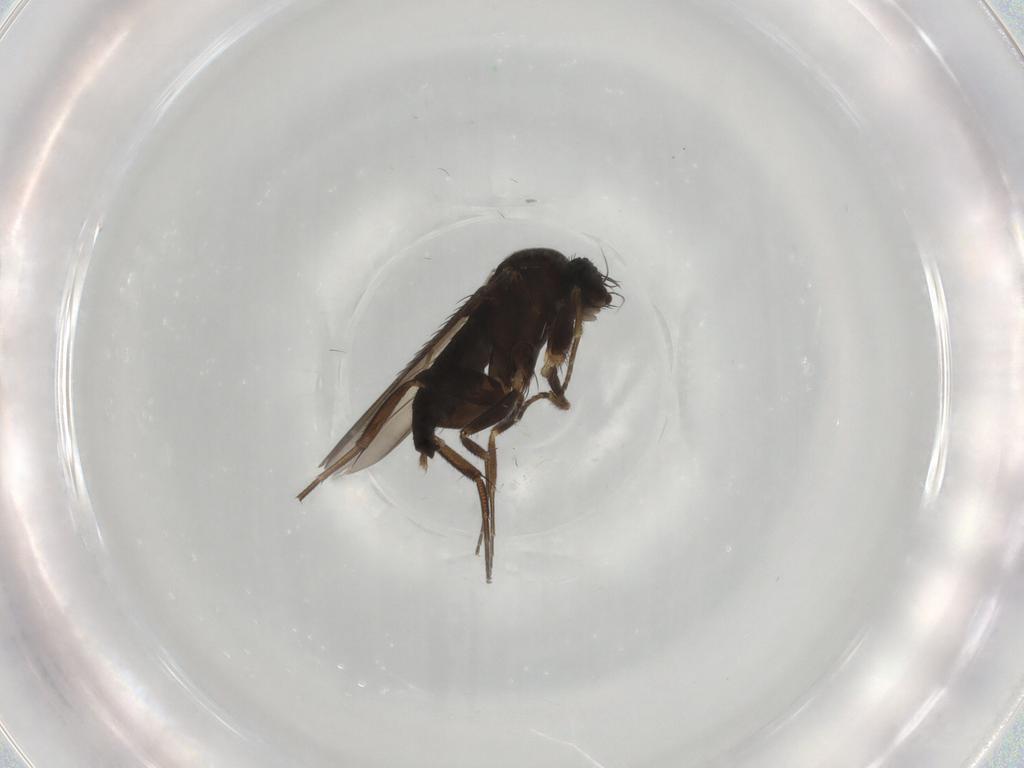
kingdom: Animalia
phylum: Arthropoda
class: Insecta
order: Diptera
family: Phoridae
